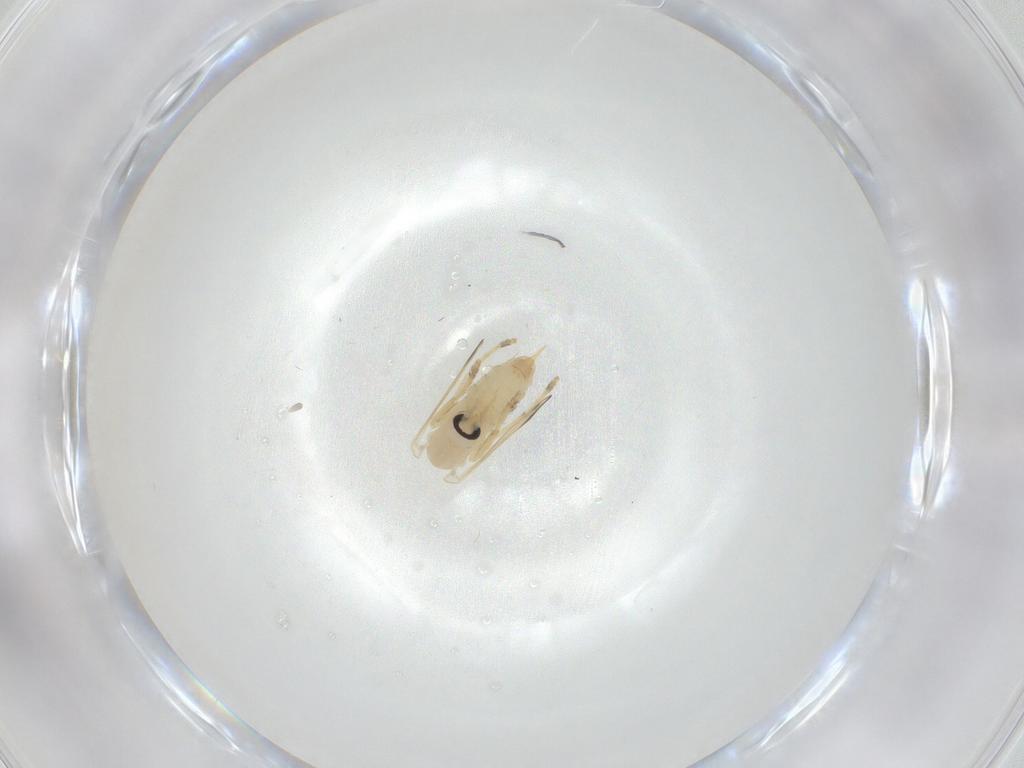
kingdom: Animalia
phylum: Arthropoda
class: Insecta
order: Diptera
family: Psychodidae
